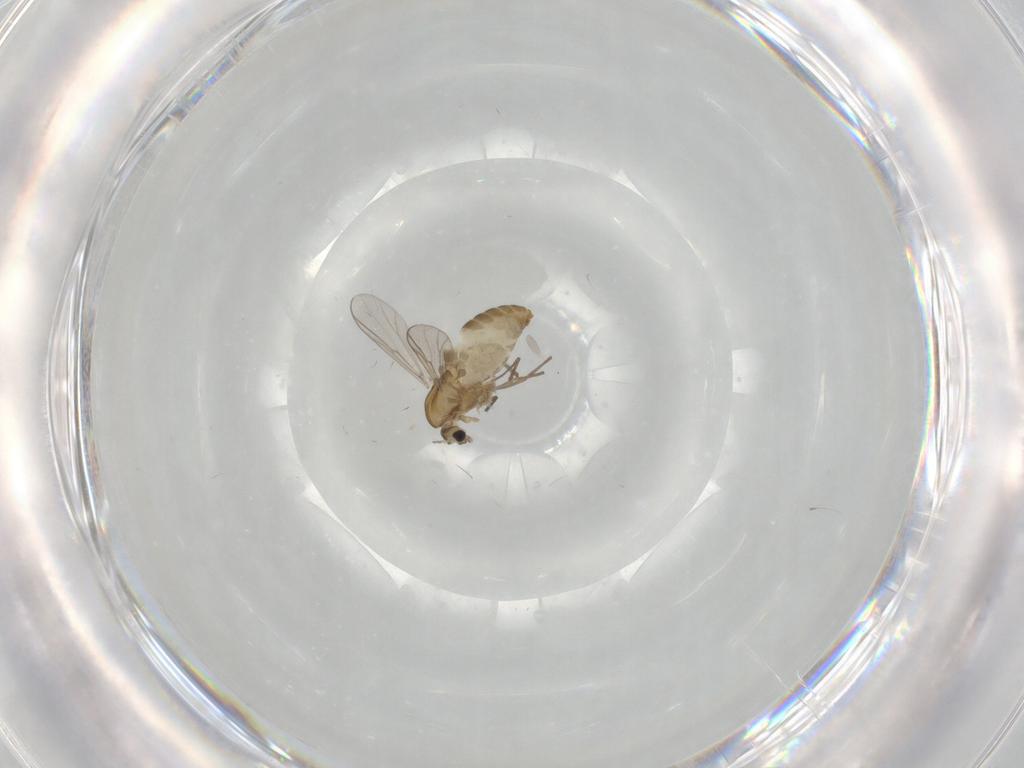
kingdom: Animalia
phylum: Arthropoda
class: Insecta
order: Diptera
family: Chironomidae
